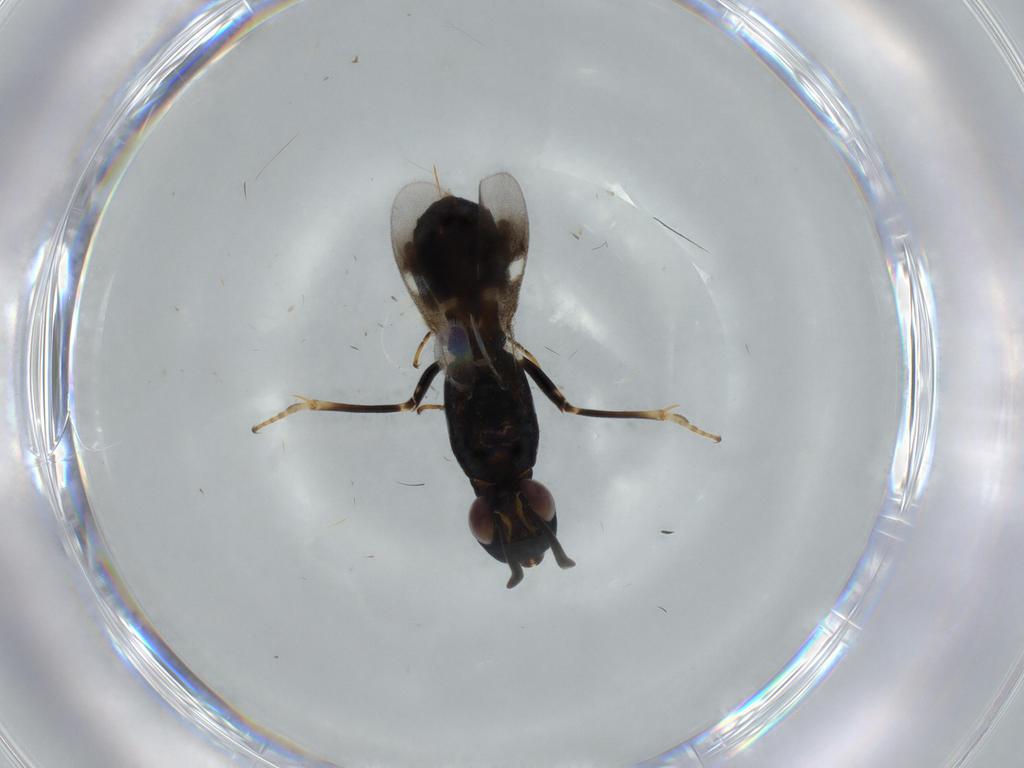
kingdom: Animalia
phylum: Arthropoda
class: Insecta
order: Hymenoptera
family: Bethylidae
